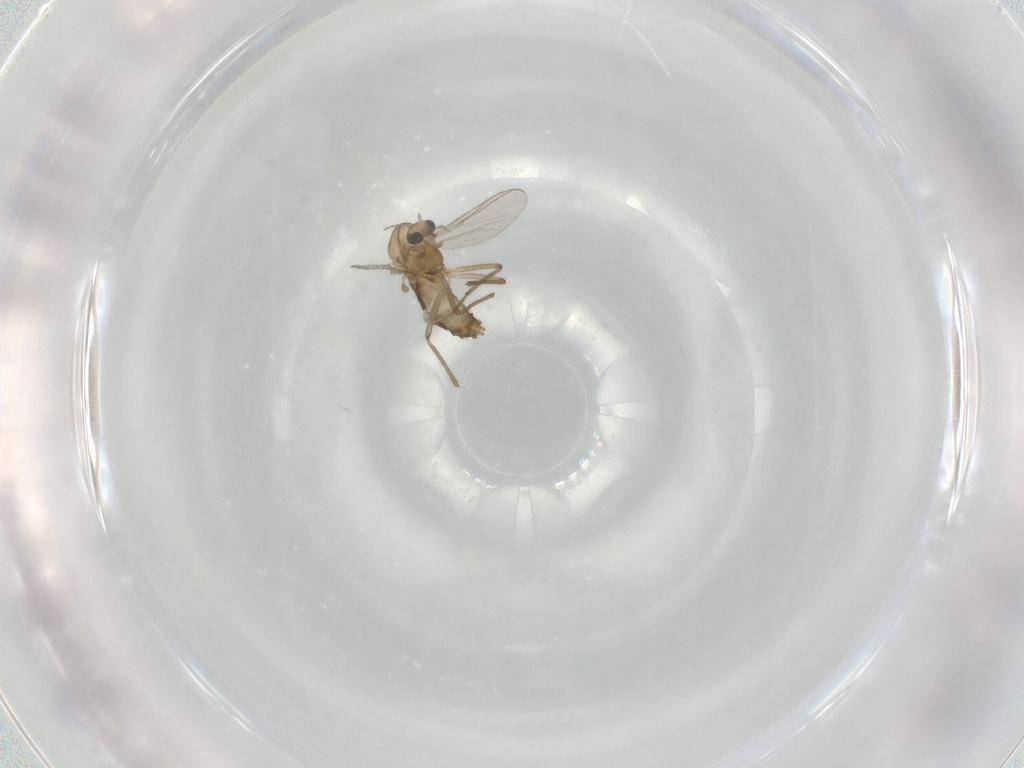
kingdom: Animalia
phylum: Arthropoda
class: Insecta
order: Diptera
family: Chironomidae
